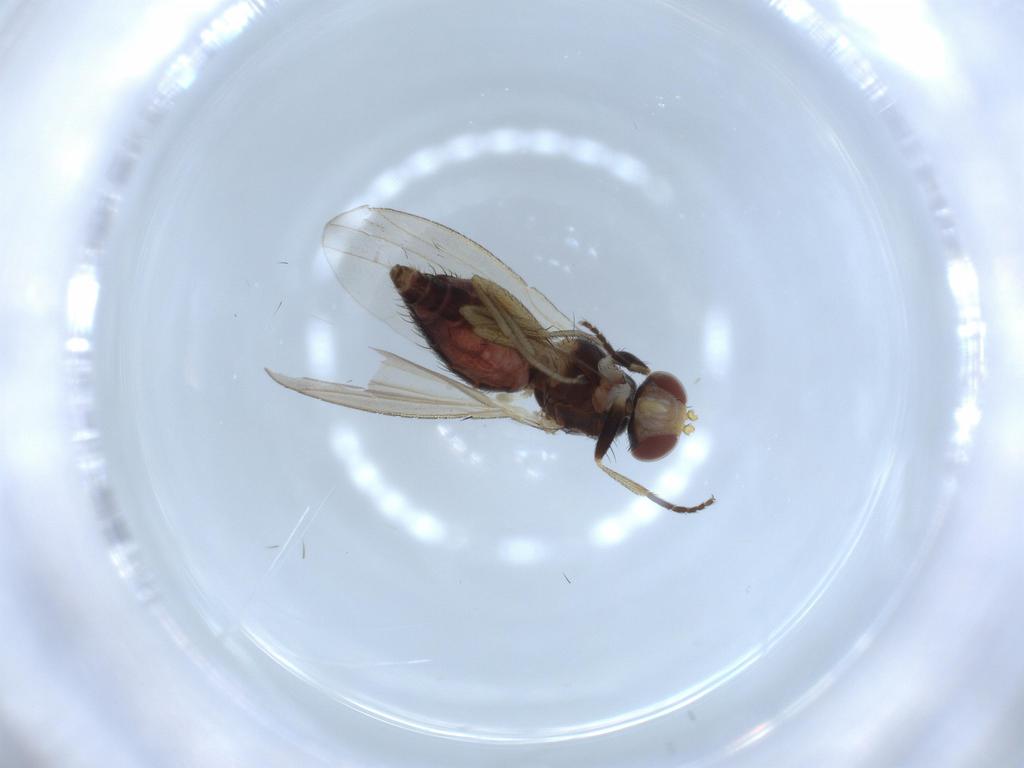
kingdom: Animalia
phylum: Arthropoda
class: Insecta
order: Diptera
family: Heleomyzidae
